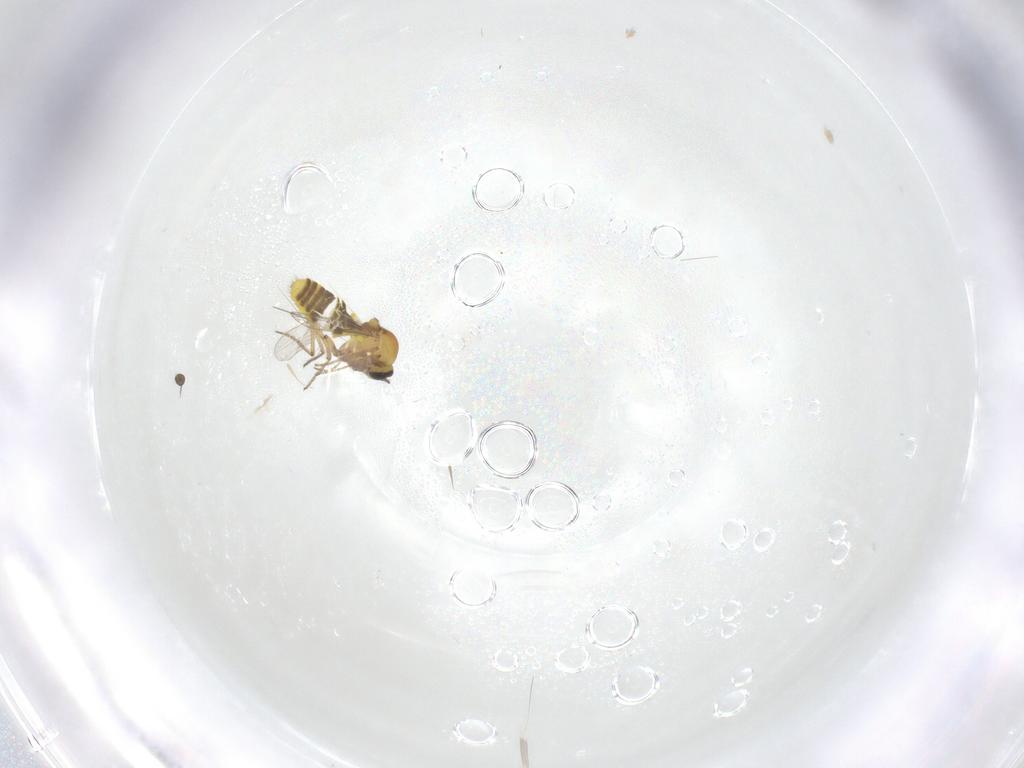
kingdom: Animalia
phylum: Arthropoda
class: Insecta
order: Diptera
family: Ceratopogonidae
